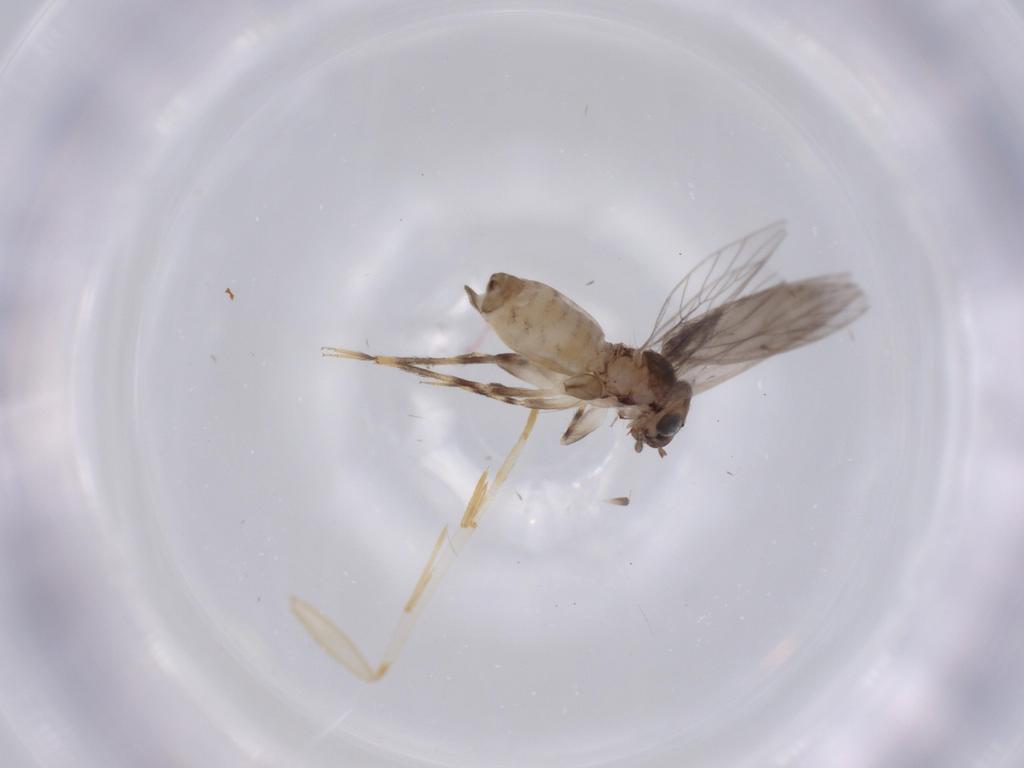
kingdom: Animalia
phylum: Arthropoda
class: Insecta
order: Psocodea
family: Lepidopsocidae
